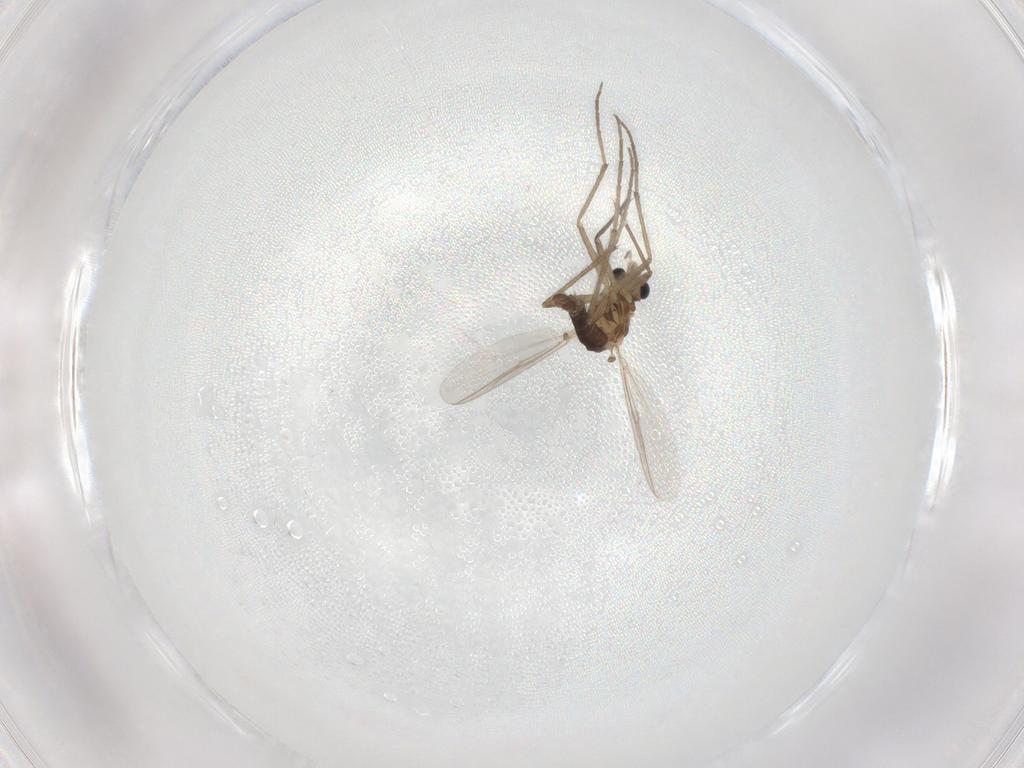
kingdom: Animalia
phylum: Arthropoda
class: Insecta
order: Diptera
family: Chironomidae
